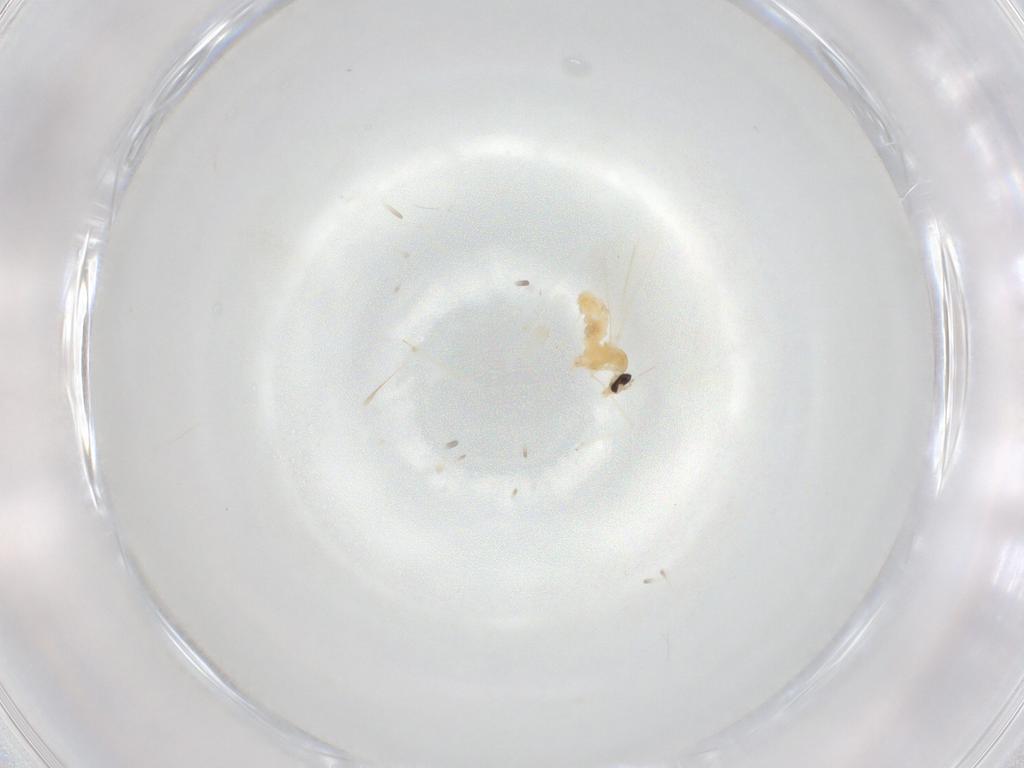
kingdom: Animalia
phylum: Arthropoda
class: Insecta
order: Diptera
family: Cecidomyiidae
